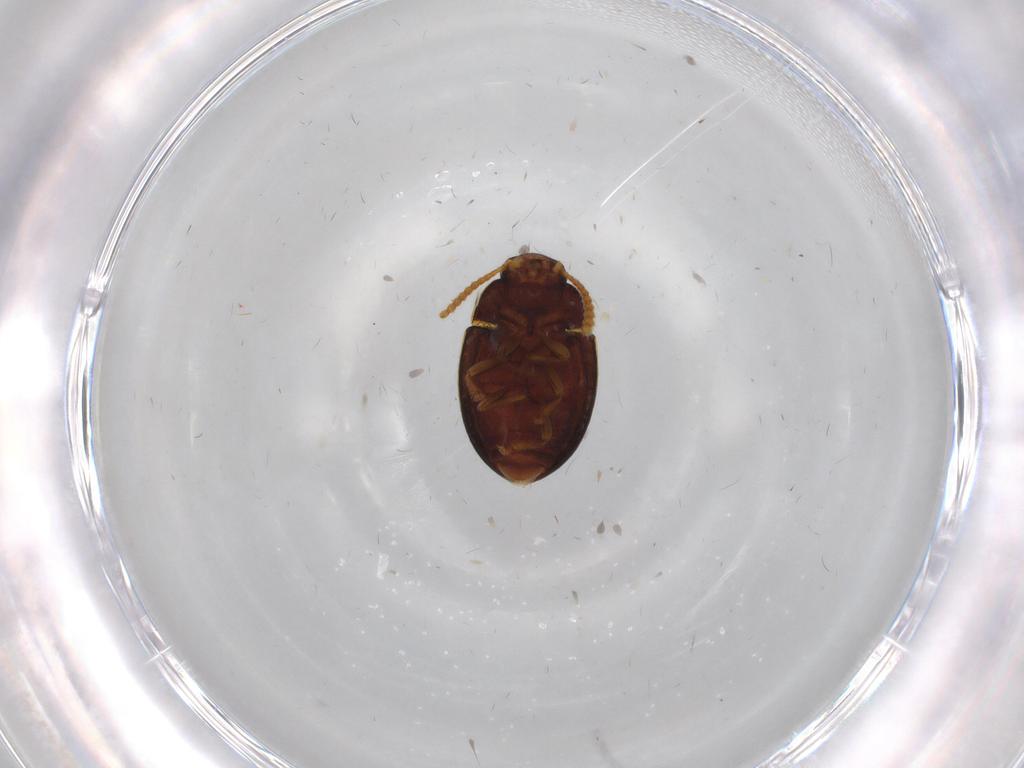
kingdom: Animalia
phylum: Arthropoda
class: Insecta
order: Coleoptera
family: Tenebrionidae
